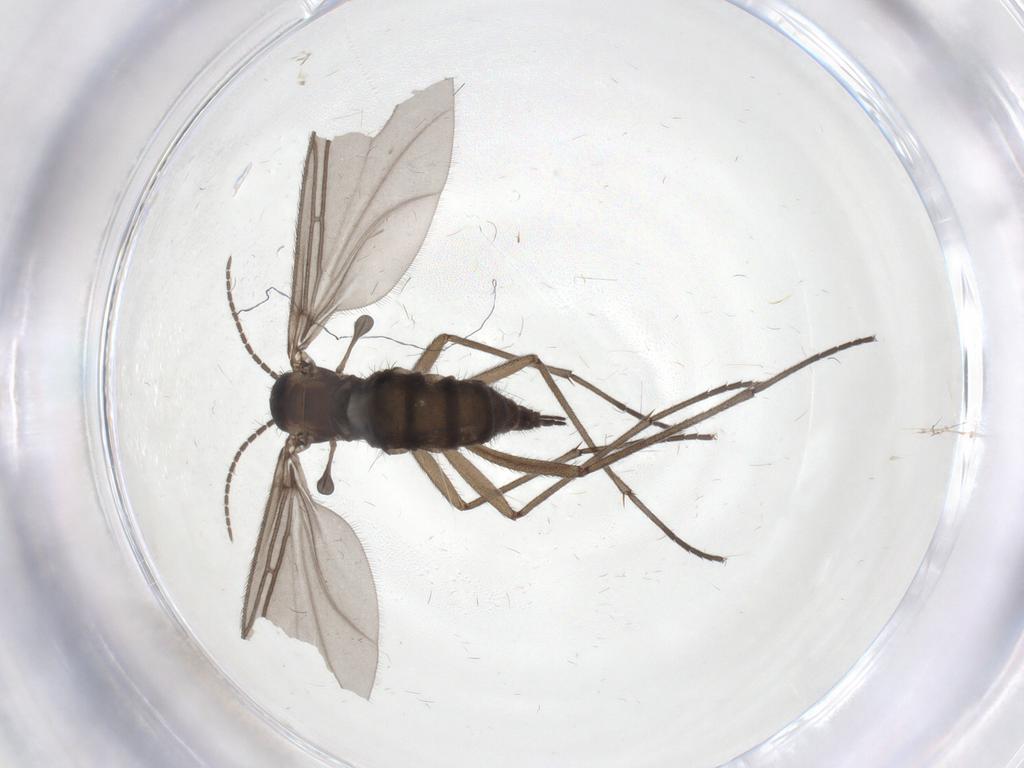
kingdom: Animalia
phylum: Arthropoda
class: Insecta
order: Diptera
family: Sciaridae
